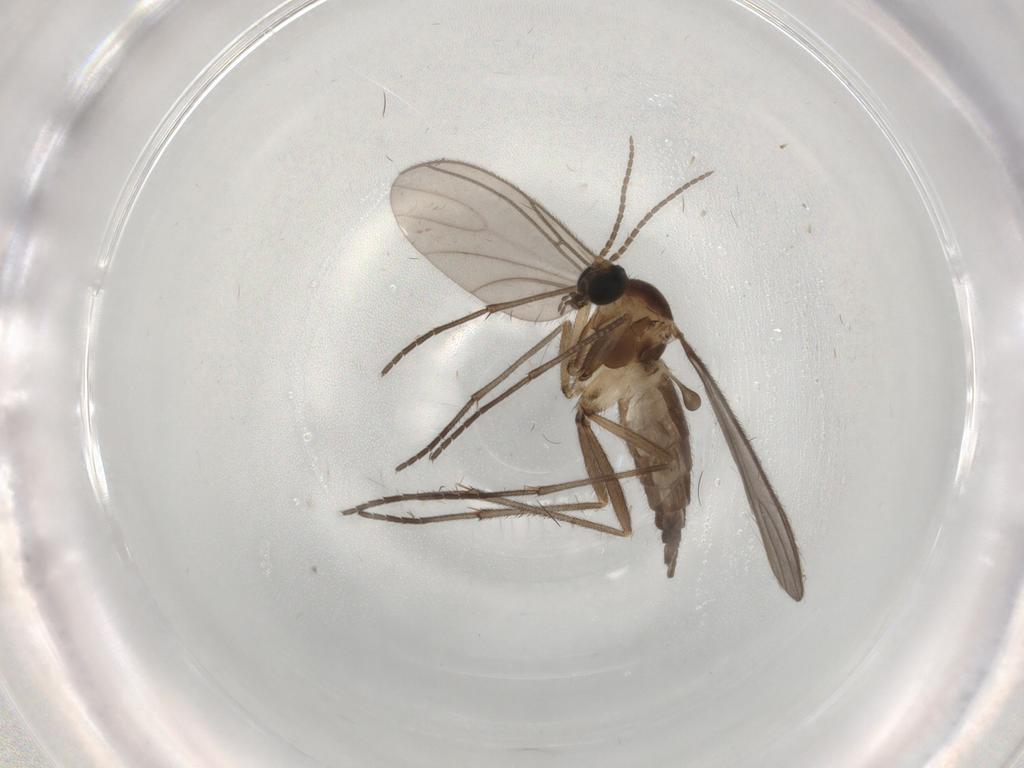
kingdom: Animalia
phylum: Arthropoda
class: Insecta
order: Diptera
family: Sciaridae
